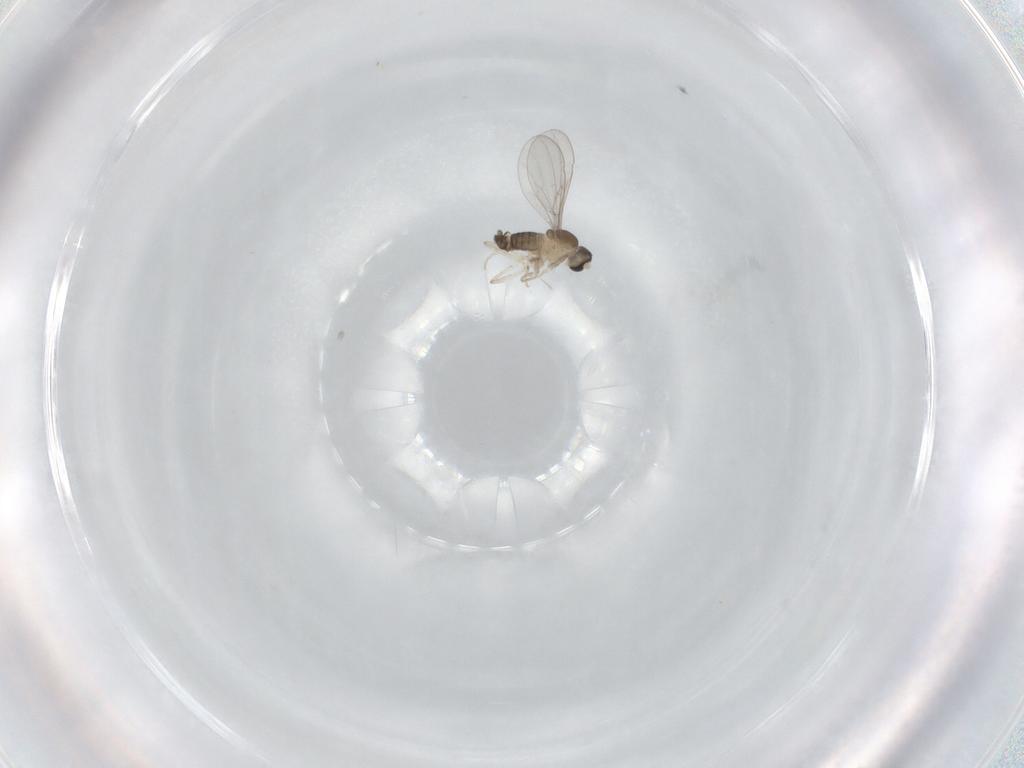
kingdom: Animalia
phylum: Arthropoda
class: Insecta
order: Diptera
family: Cecidomyiidae
